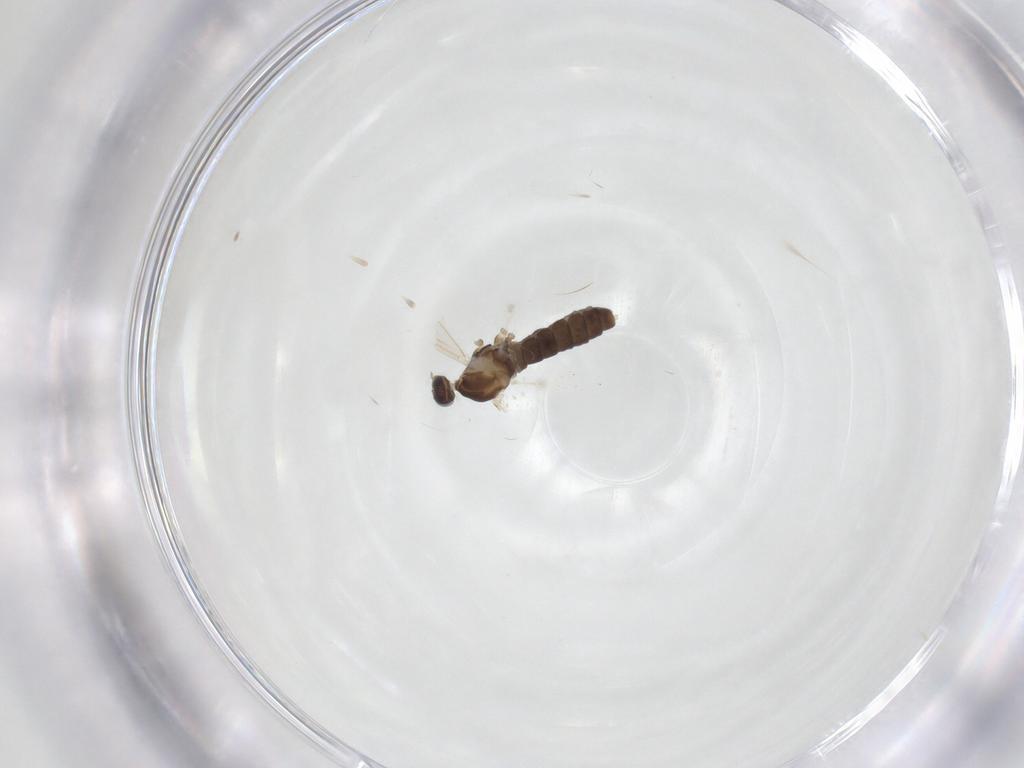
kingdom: Animalia
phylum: Arthropoda
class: Insecta
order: Diptera
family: Cecidomyiidae
